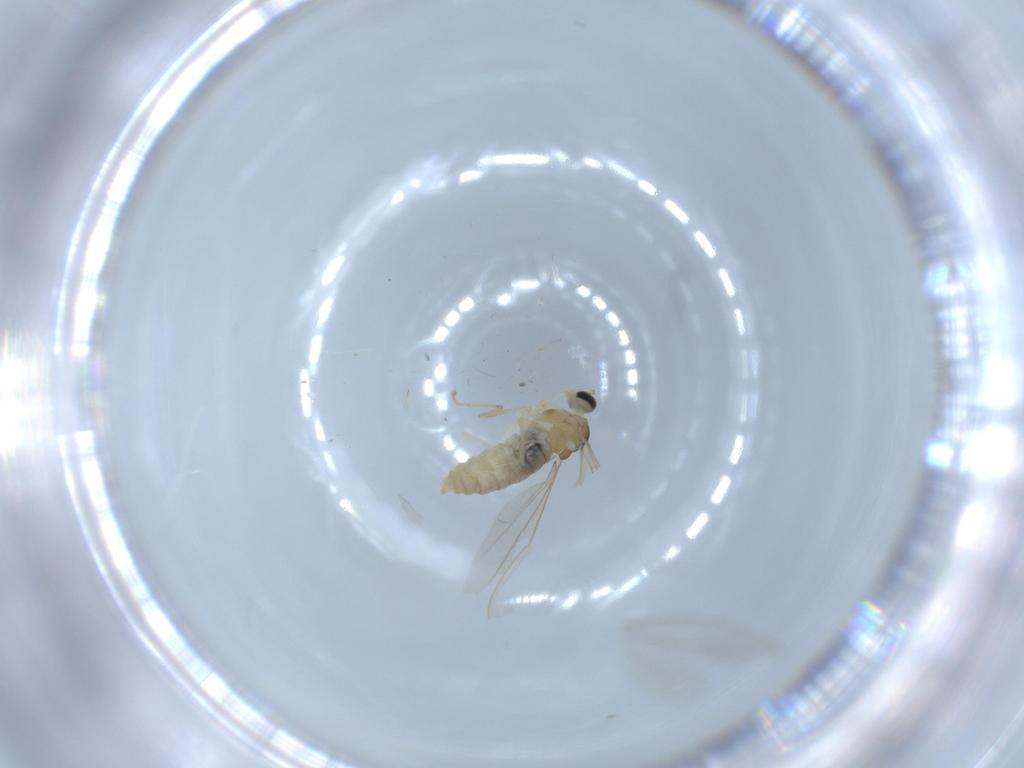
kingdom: Animalia
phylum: Arthropoda
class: Insecta
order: Diptera
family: Cecidomyiidae
